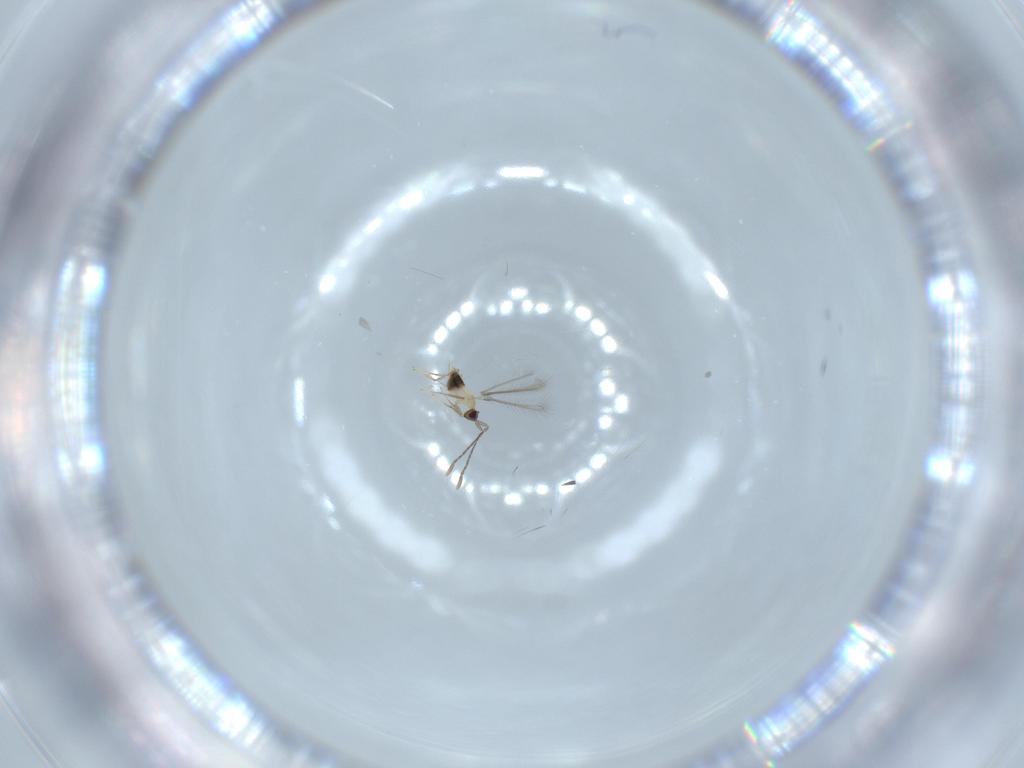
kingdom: Animalia
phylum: Arthropoda
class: Insecta
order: Hymenoptera
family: Mymaridae
